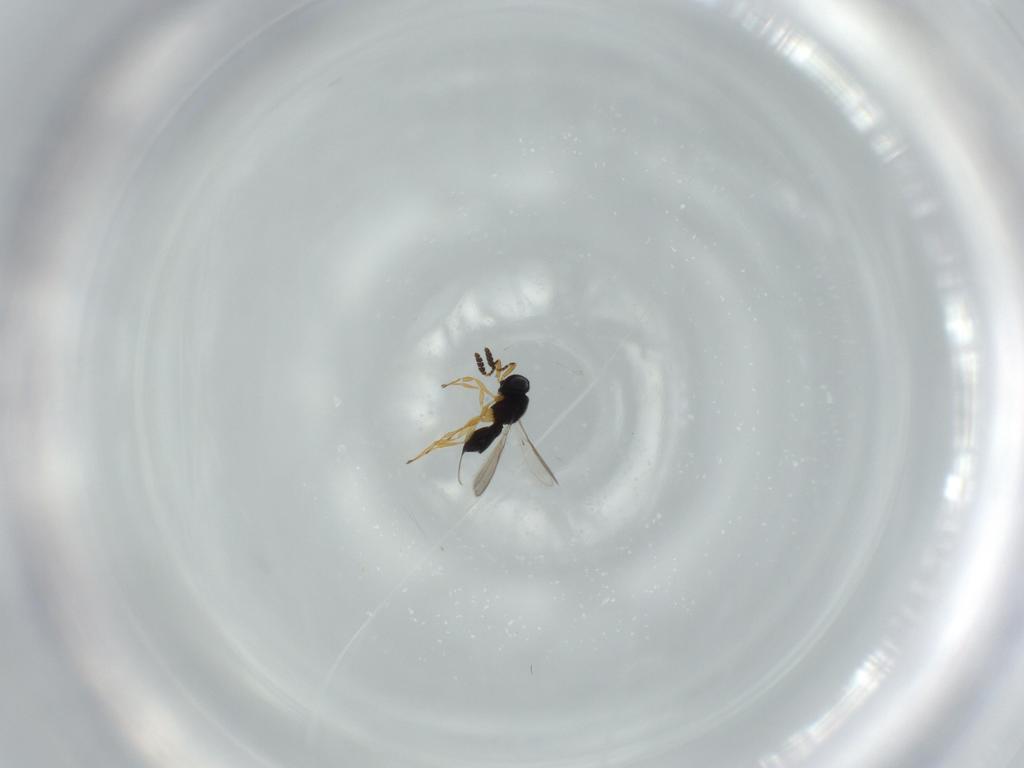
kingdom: Animalia
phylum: Arthropoda
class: Insecta
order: Hymenoptera
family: Scelionidae
